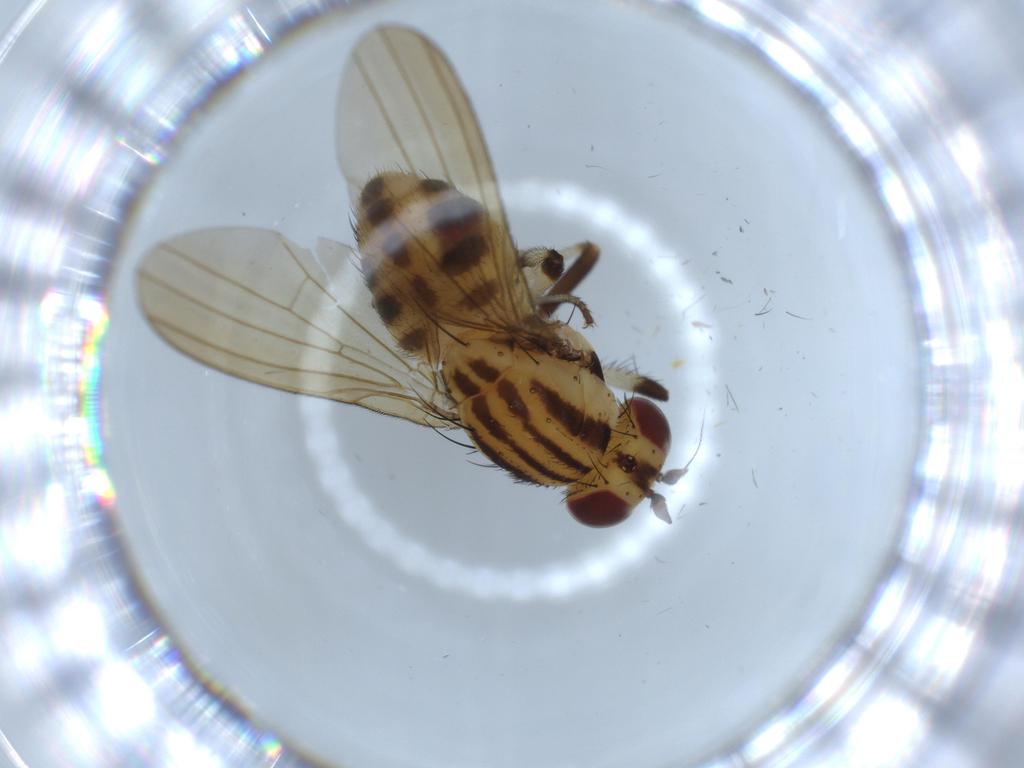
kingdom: Animalia
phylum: Arthropoda
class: Insecta
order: Diptera
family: Lauxaniidae
